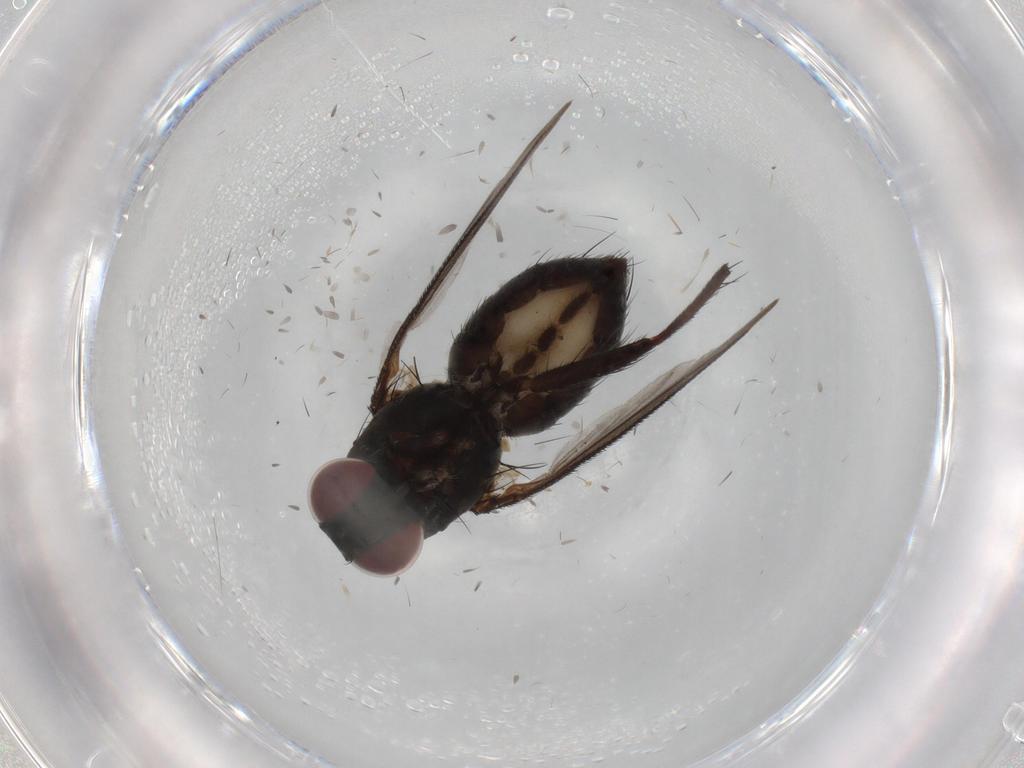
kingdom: Animalia
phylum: Arthropoda
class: Insecta
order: Diptera
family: Muscidae
